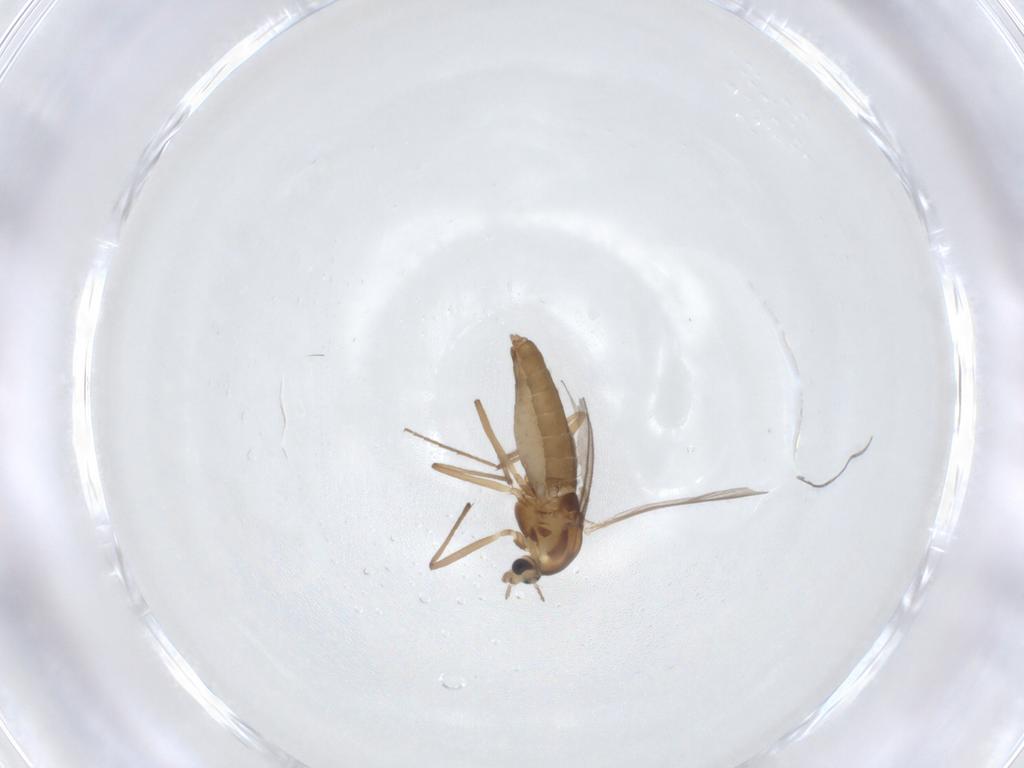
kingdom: Animalia
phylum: Arthropoda
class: Insecta
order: Diptera
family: Chironomidae
